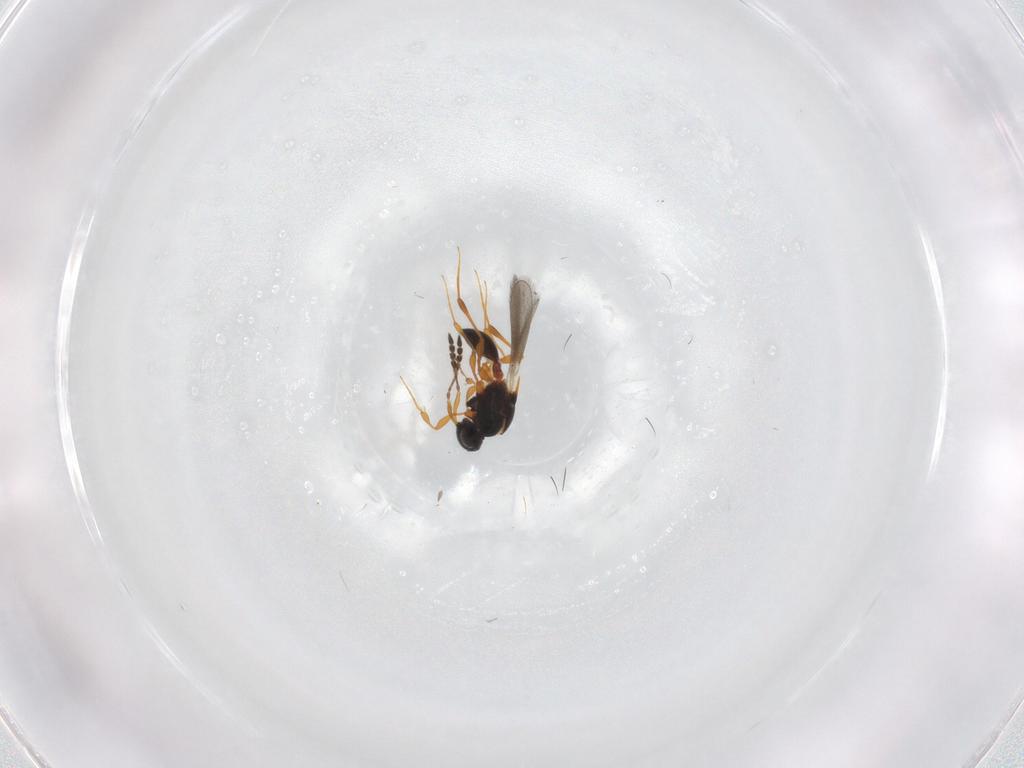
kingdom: Animalia
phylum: Arthropoda
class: Insecta
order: Hymenoptera
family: Platygastridae
